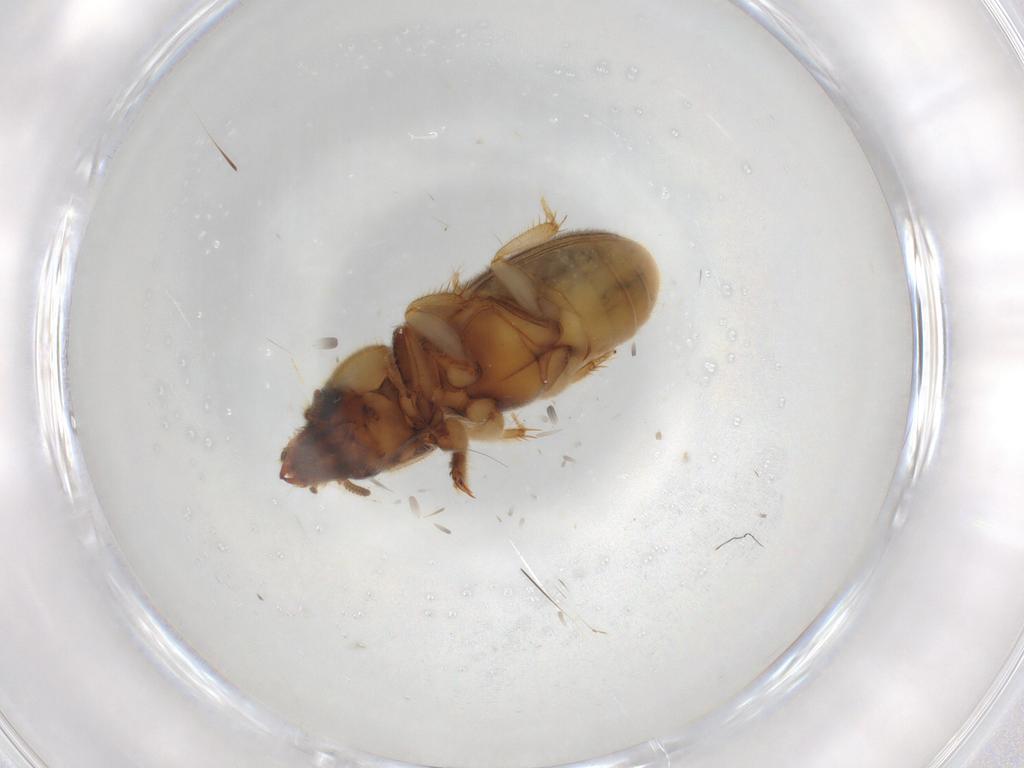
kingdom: Animalia
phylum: Arthropoda
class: Insecta
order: Coleoptera
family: Heteroceridae
